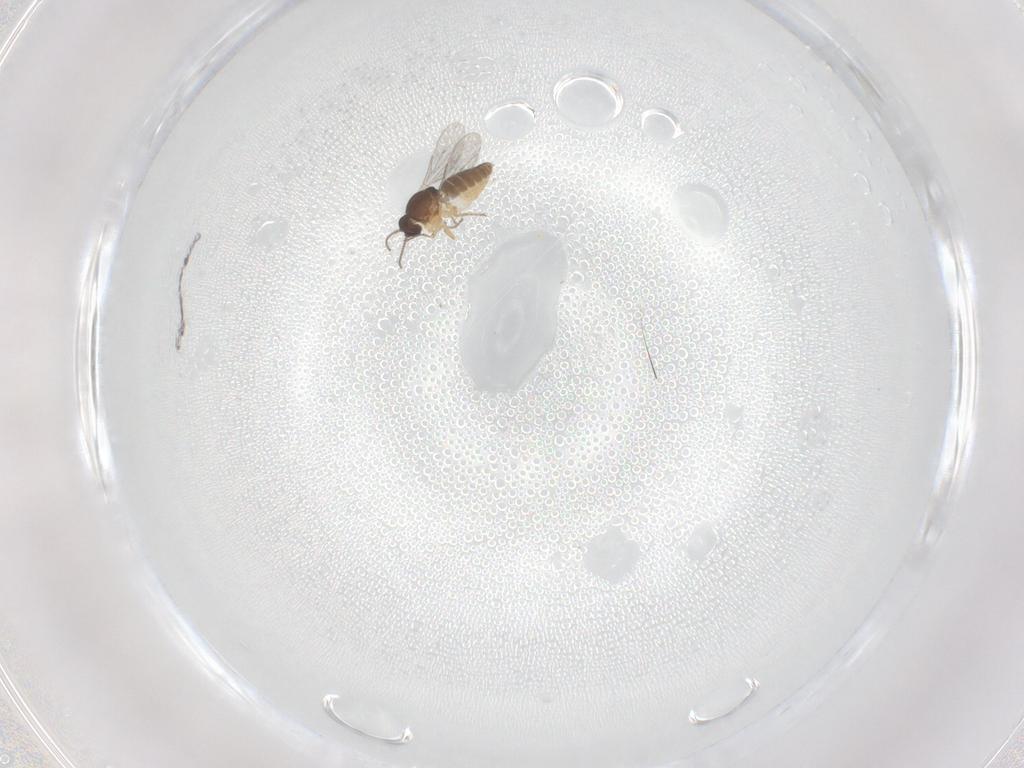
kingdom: Animalia
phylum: Arthropoda
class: Insecta
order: Diptera
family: Ceratopogonidae
